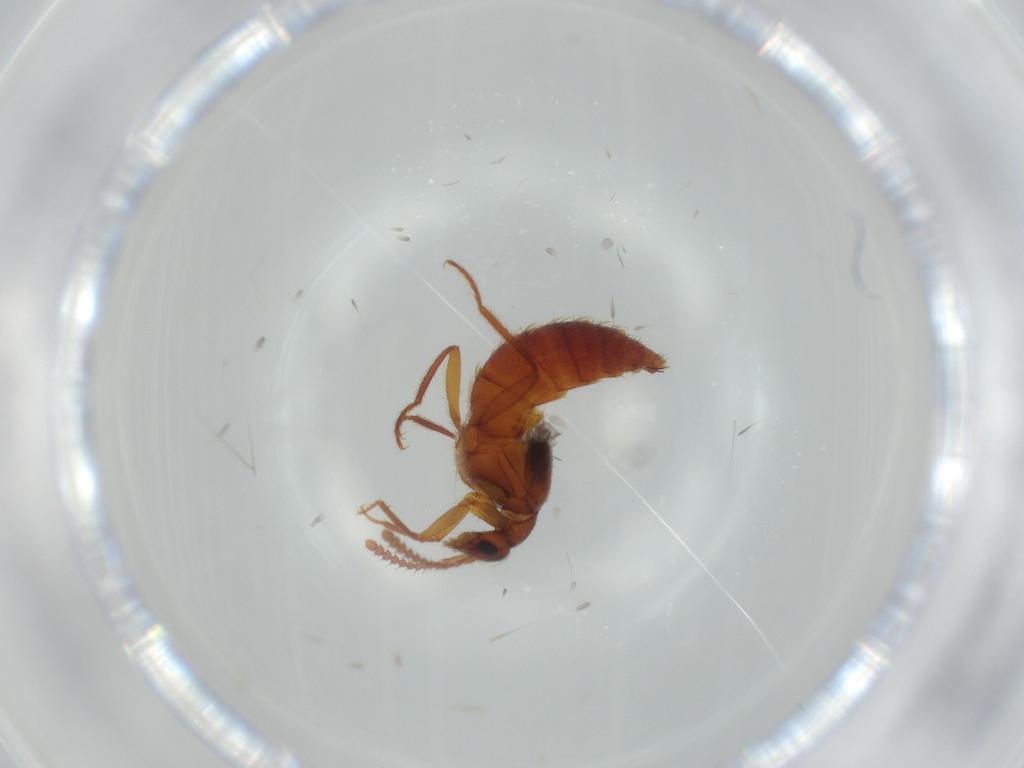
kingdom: Animalia
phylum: Arthropoda
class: Insecta
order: Coleoptera
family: Staphylinidae
